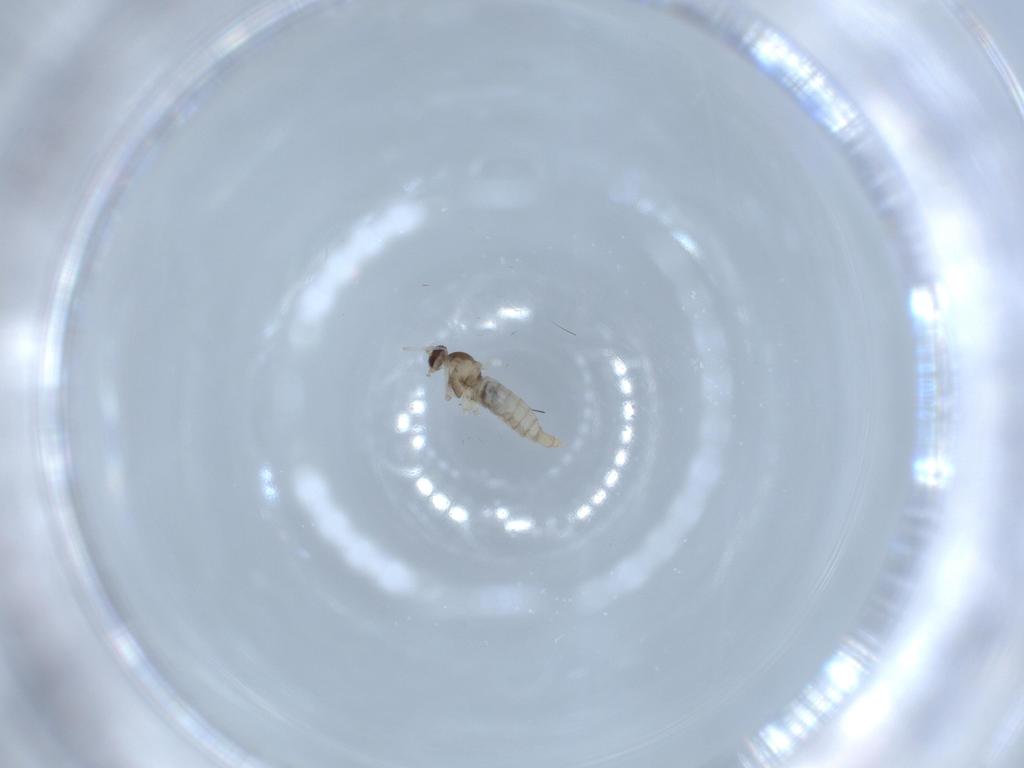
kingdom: Animalia
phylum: Arthropoda
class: Insecta
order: Diptera
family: Cecidomyiidae
